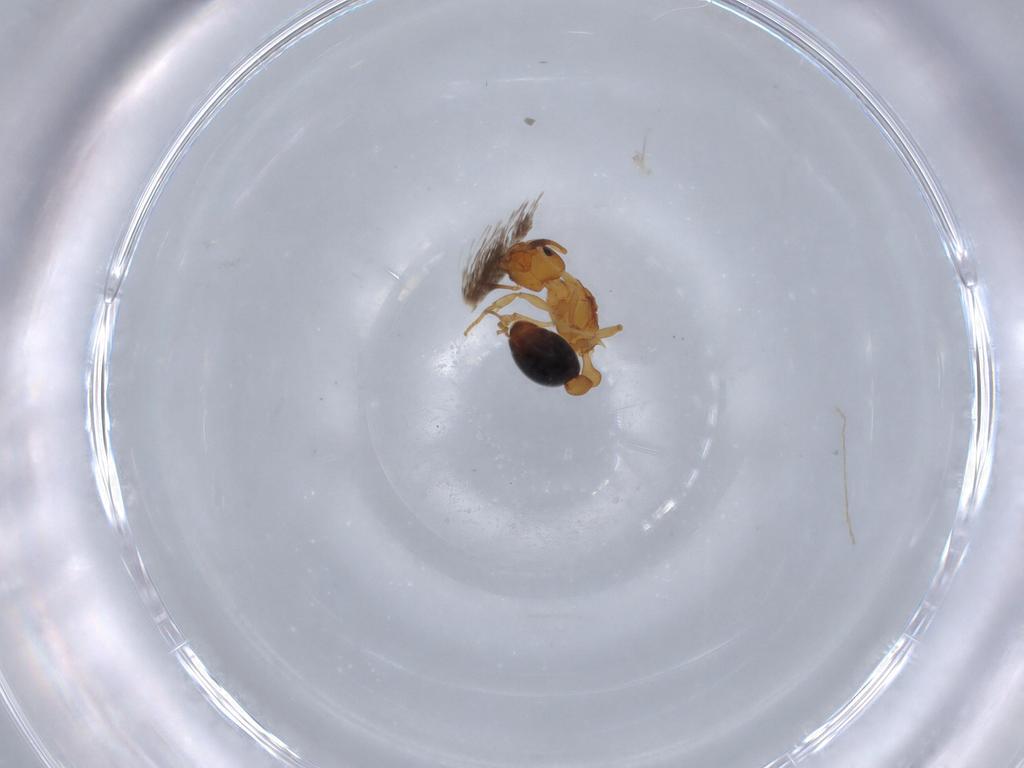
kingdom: Animalia
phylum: Arthropoda
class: Insecta
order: Hymenoptera
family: Formicidae
